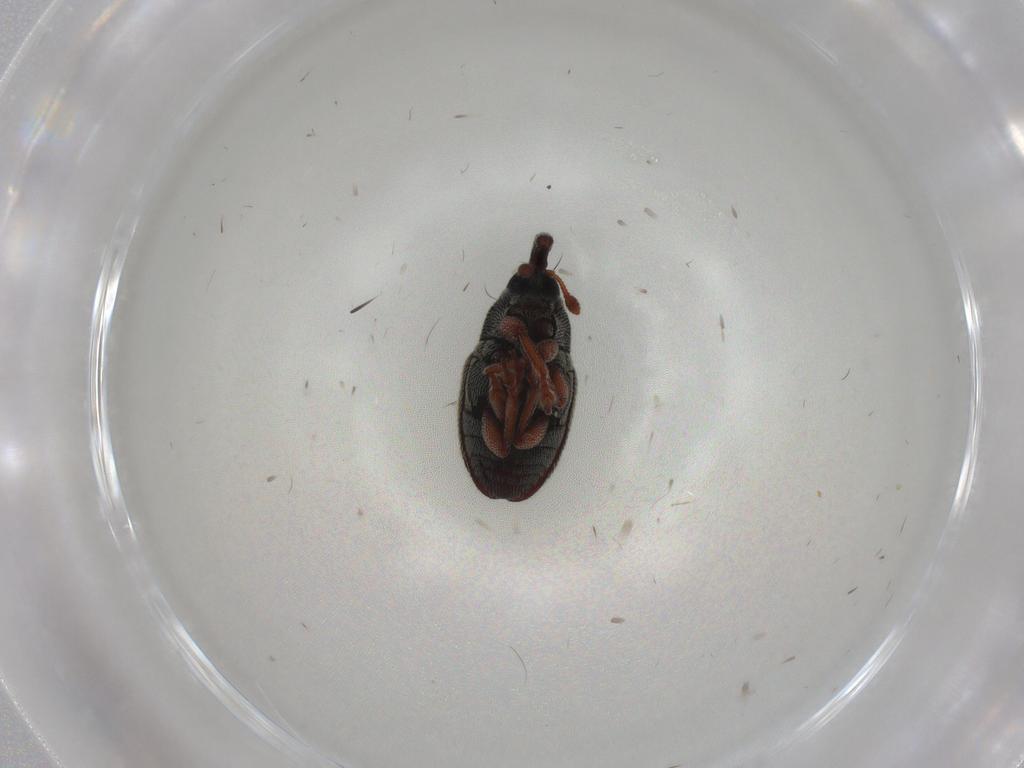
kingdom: Animalia
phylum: Arthropoda
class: Insecta
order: Coleoptera
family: Curculionidae
